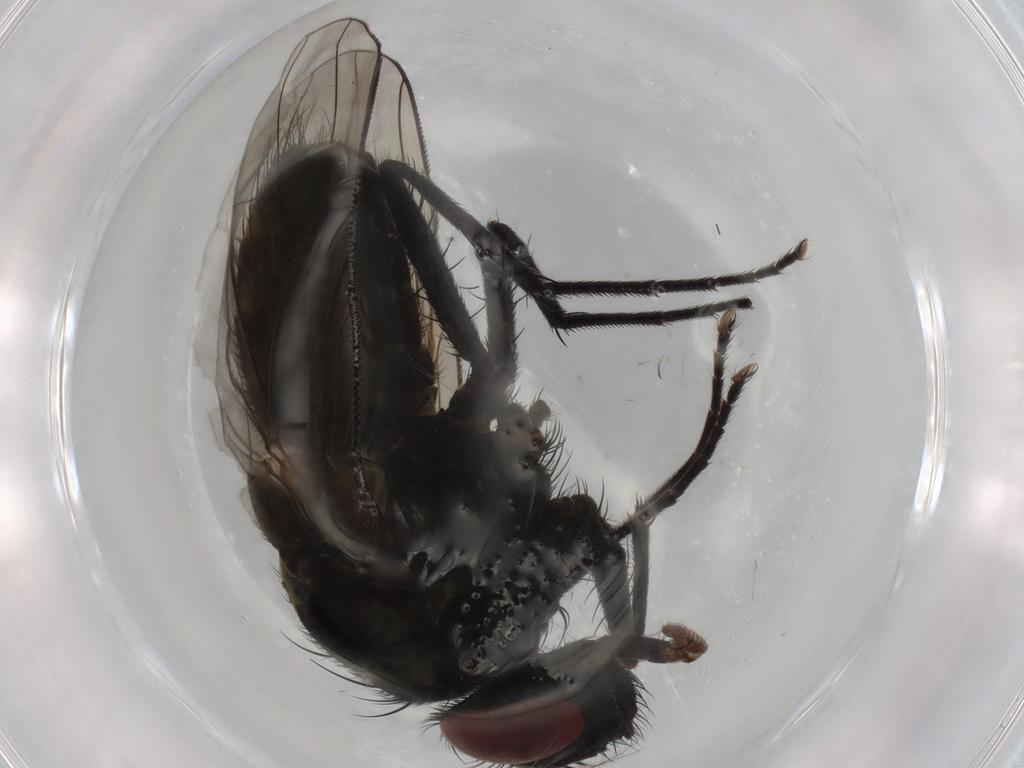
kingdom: Animalia
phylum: Arthropoda
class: Insecta
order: Diptera
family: Muscidae
